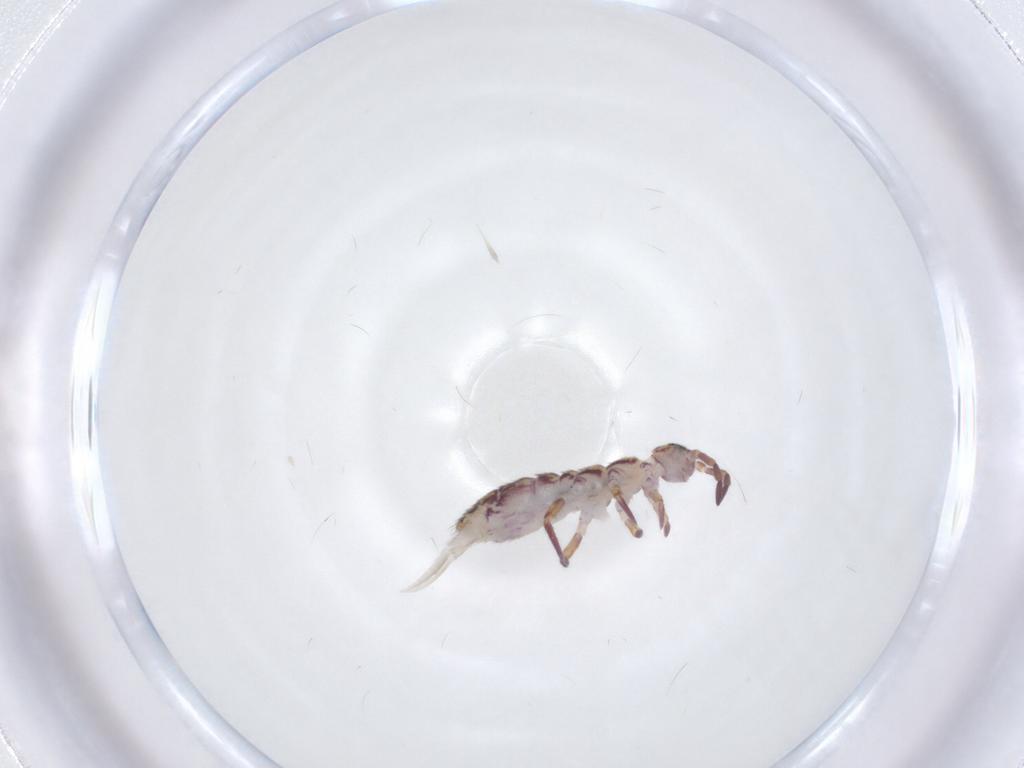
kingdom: Animalia
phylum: Arthropoda
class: Collembola
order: Entomobryomorpha
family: Isotomidae
